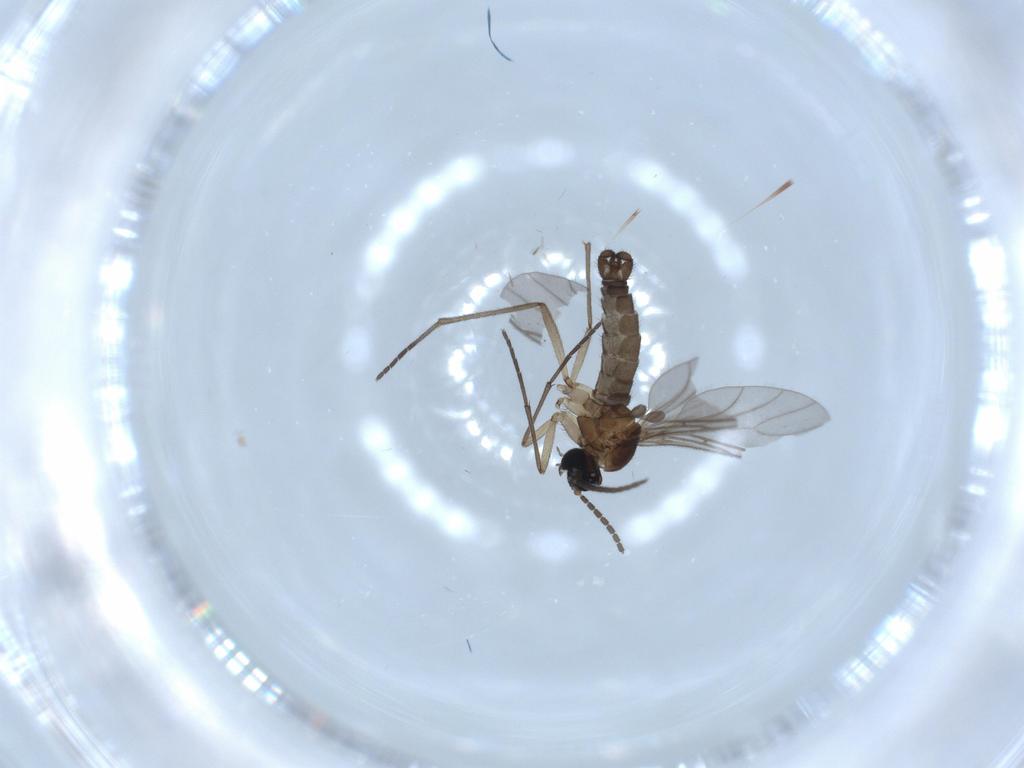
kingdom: Animalia
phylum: Arthropoda
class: Insecta
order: Diptera
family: Sciaridae
